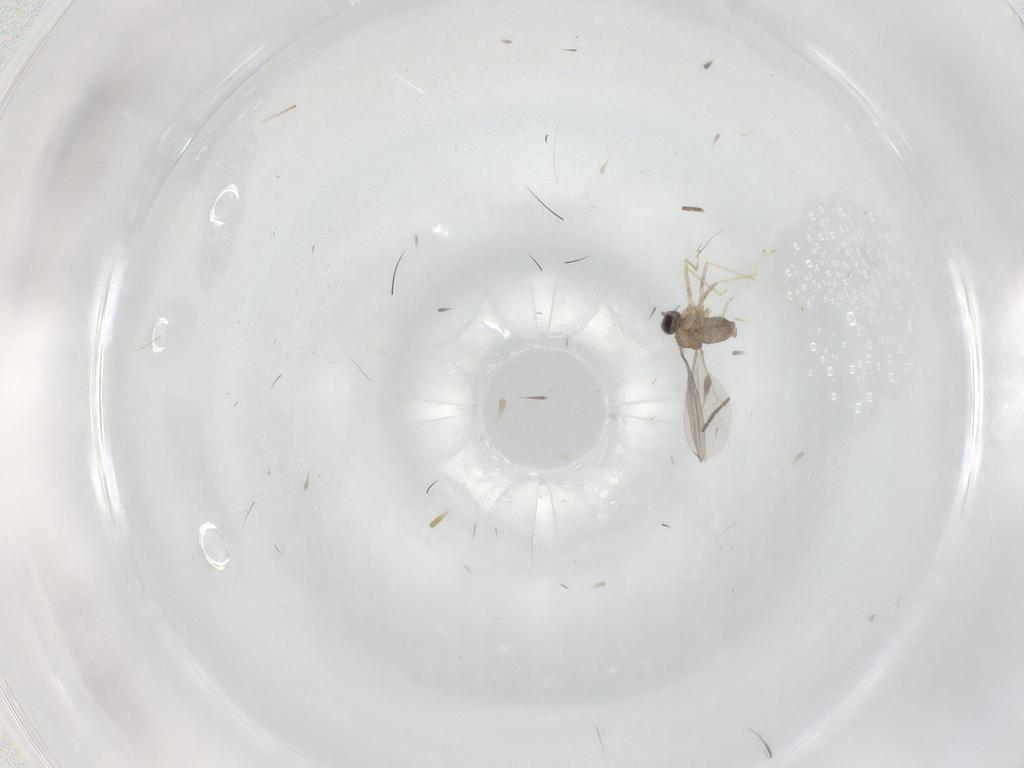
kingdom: Animalia
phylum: Arthropoda
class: Insecta
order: Diptera
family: Cecidomyiidae
